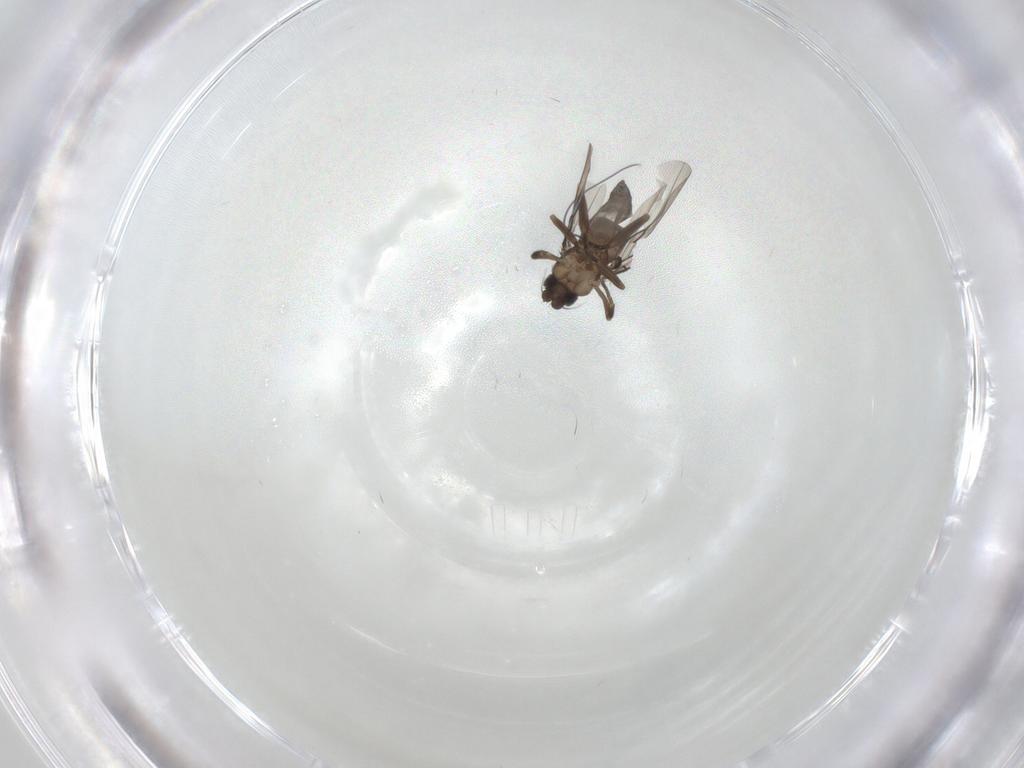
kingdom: Animalia
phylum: Arthropoda
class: Insecta
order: Diptera
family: Phoridae
